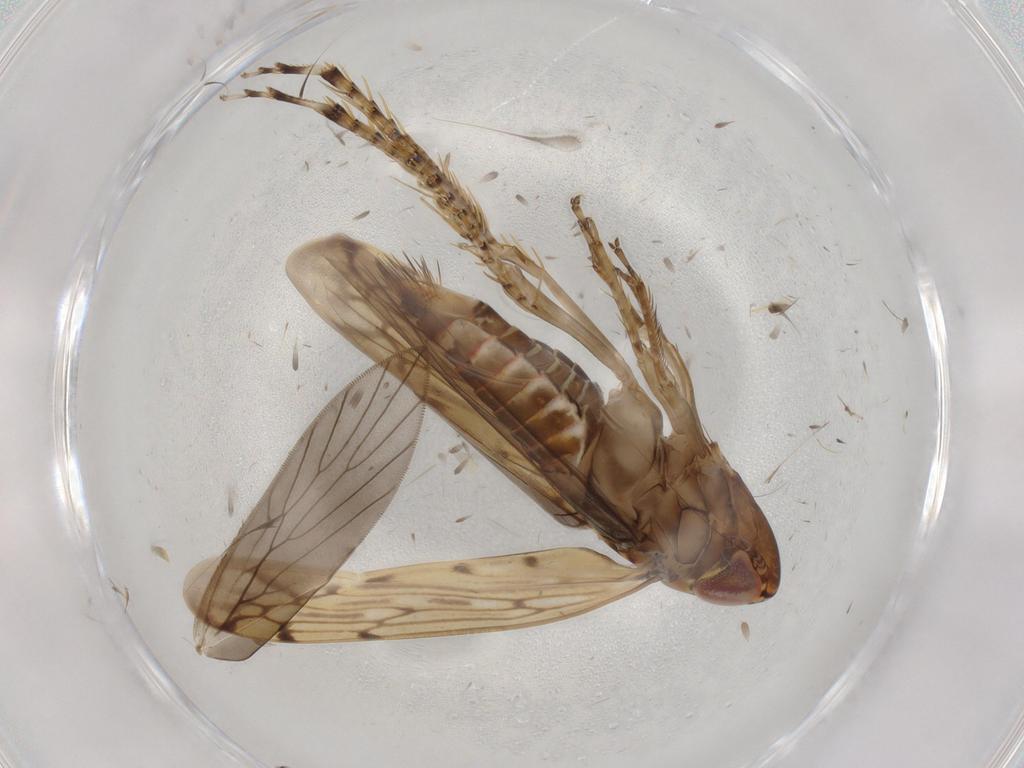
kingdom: Animalia
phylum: Arthropoda
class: Insecta
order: Hemiptera
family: Cicadellidae
